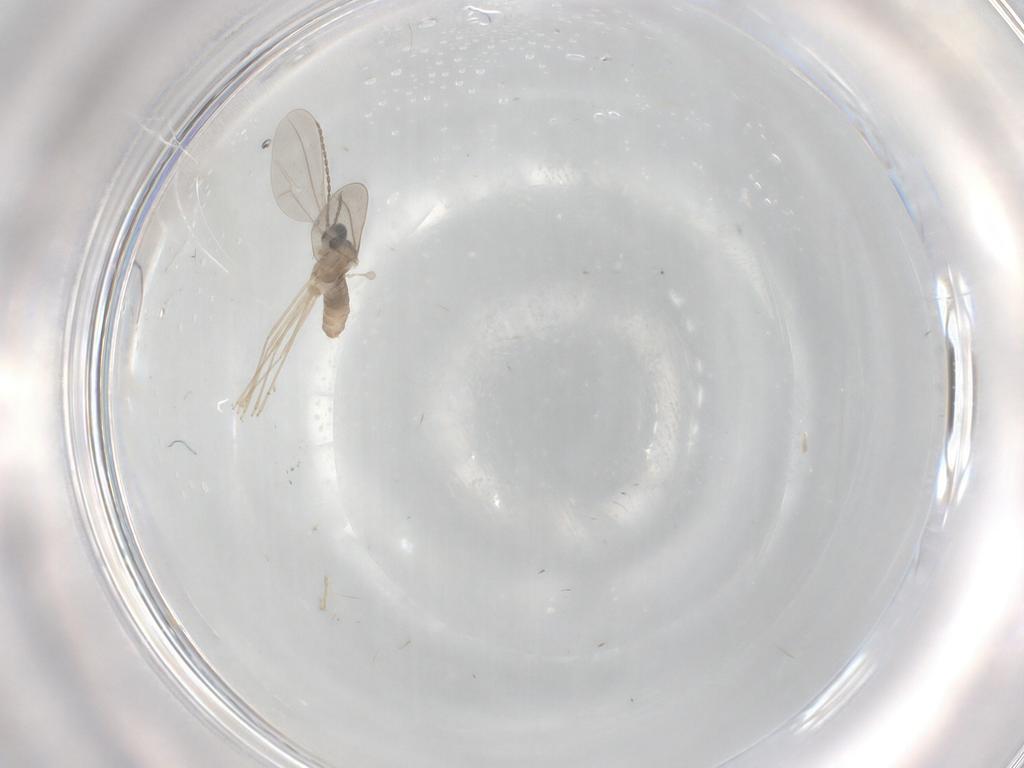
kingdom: Animalia
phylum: Arthropoda
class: Insecta
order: Diptera
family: Cecidomyiidae
